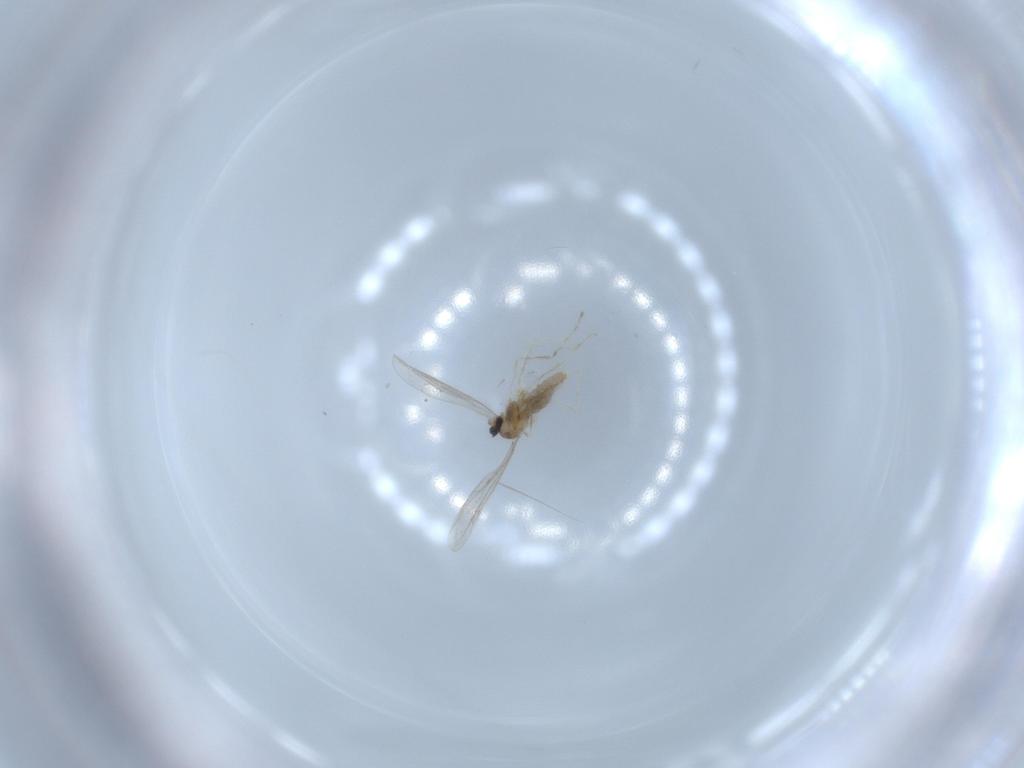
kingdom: Animalia
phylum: Arthropoda
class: Insecta
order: Diptera
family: Cecidomyiidae
